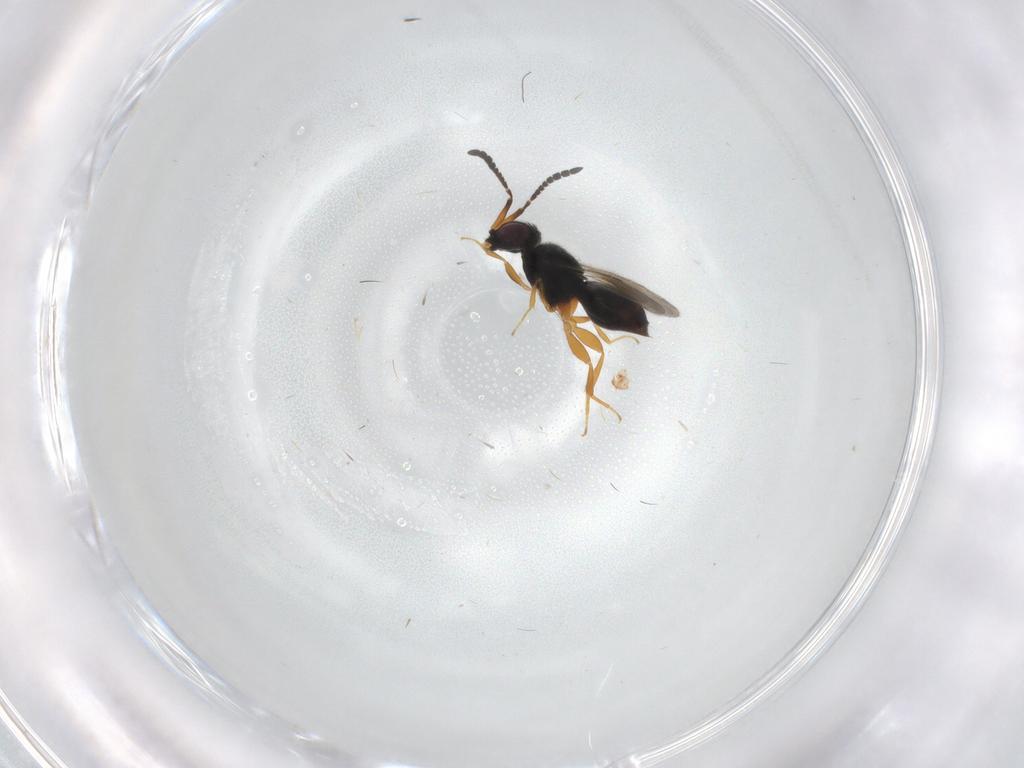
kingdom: Animalia
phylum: Arthropoda
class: Insecta
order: Hymenoptera
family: Ceraphronidae
